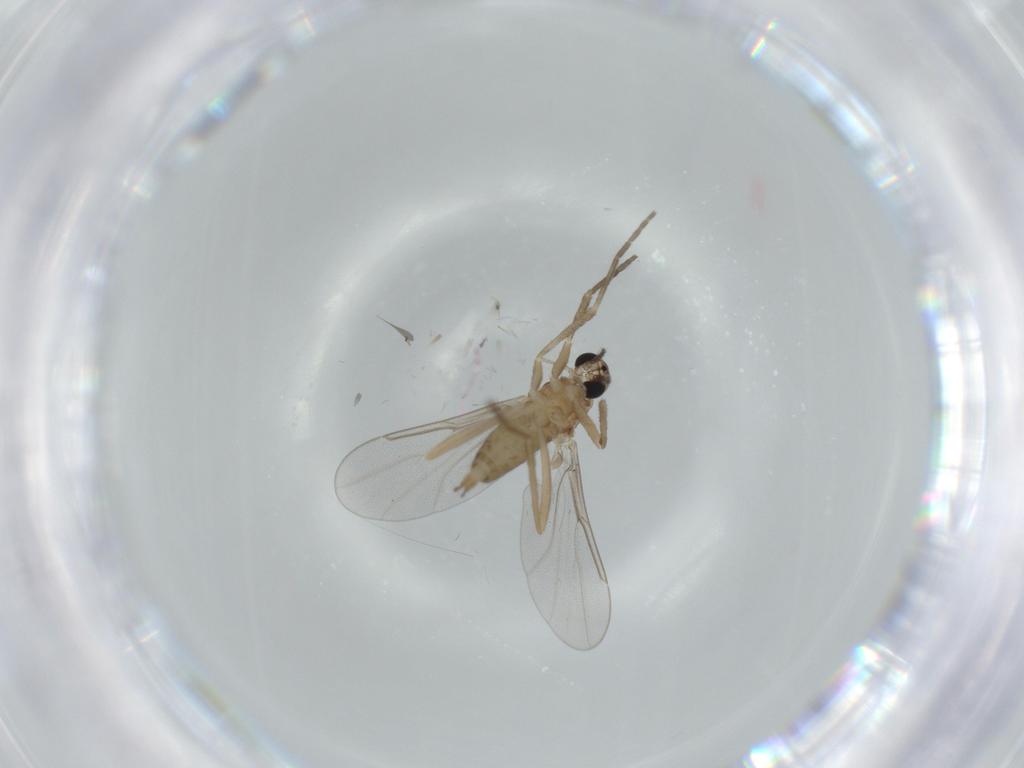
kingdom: Animalia
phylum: Arthropoda
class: Insecta
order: Diptera
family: Cecidomyiidae
